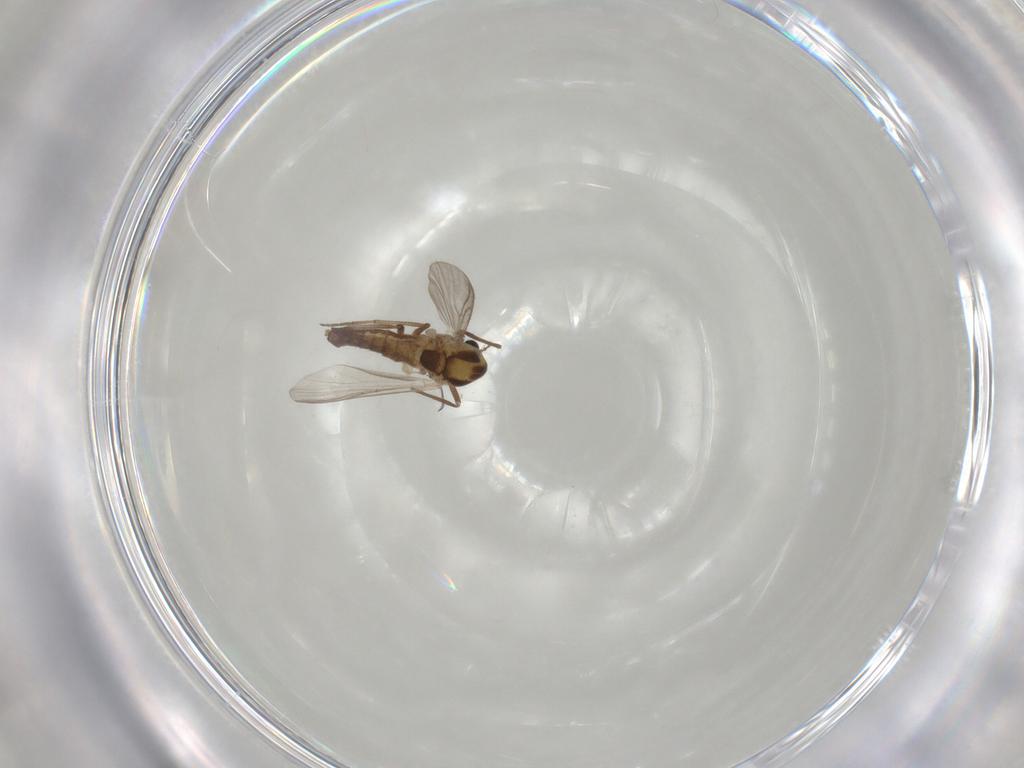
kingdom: Animalia
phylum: Arthropoda
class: Insecta
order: Diptera
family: Chironomidae
